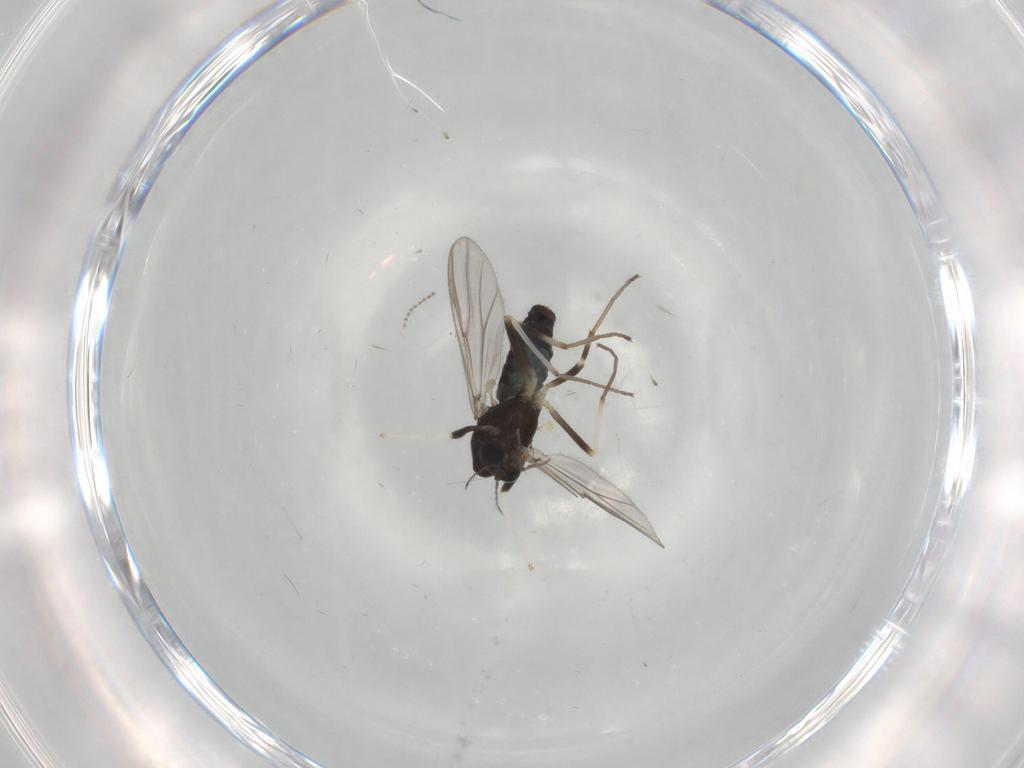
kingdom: Animalia
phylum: Arthropoda
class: Insecta
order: Diptera
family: Chironomidae
